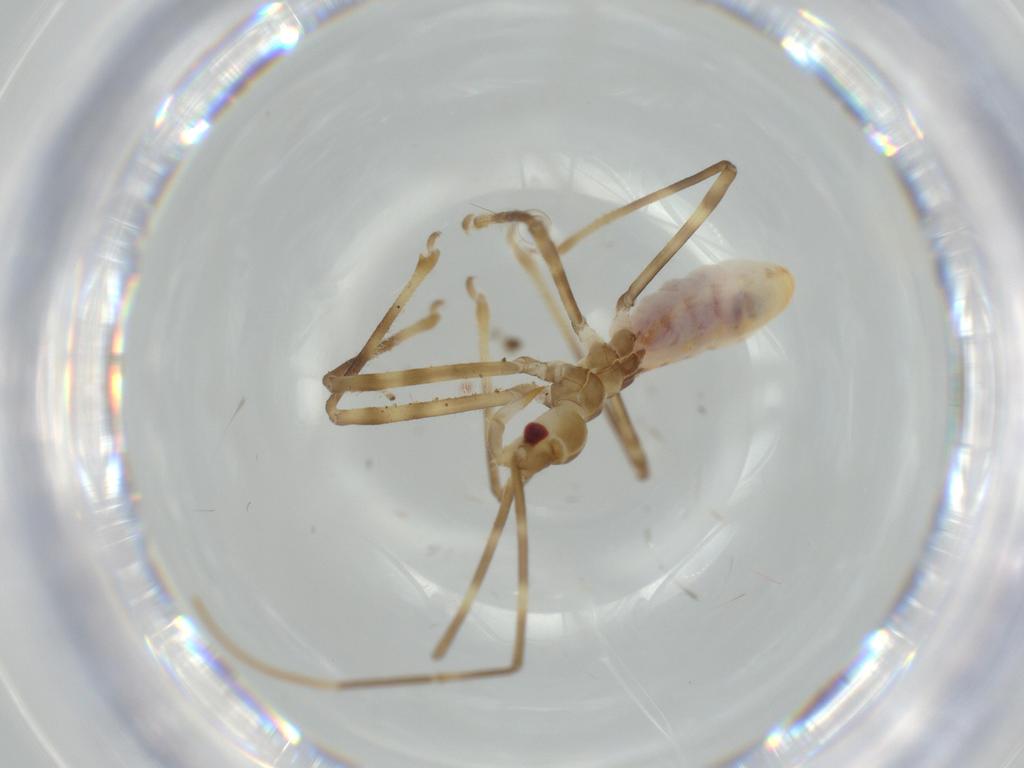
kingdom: Animalia
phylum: Arthropoda
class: Insecta
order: Hemiptera
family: Reduviidae
